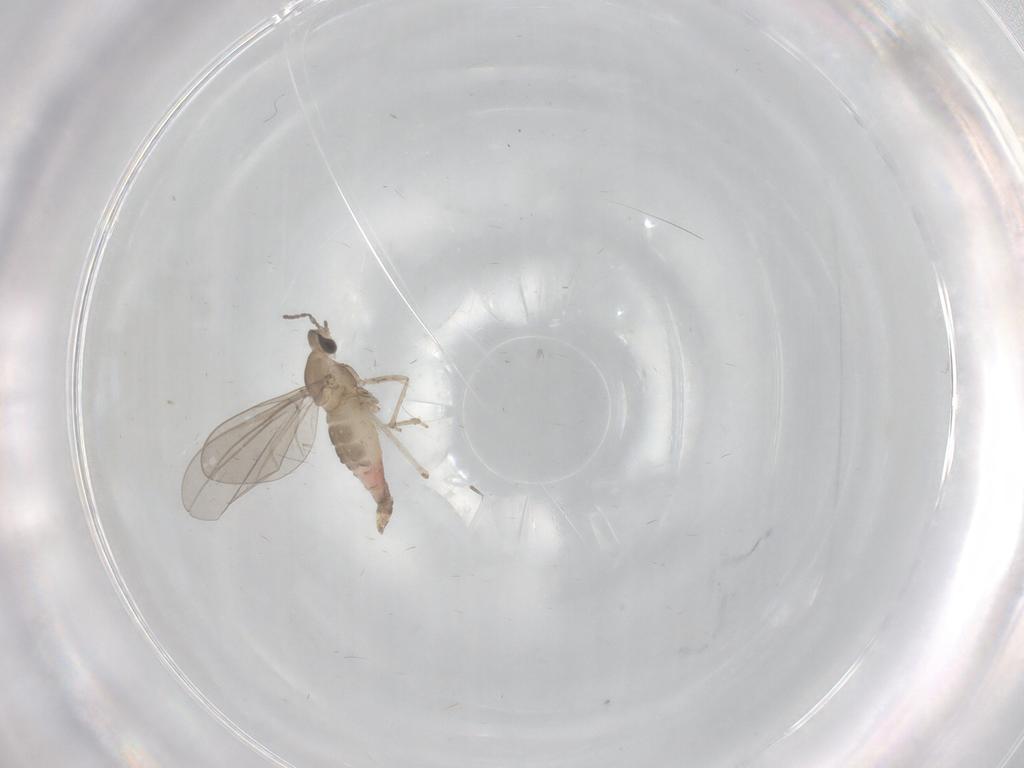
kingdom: Animalia
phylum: Arthropoda
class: Insecta
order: Diptera
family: Cecidomyiidae
